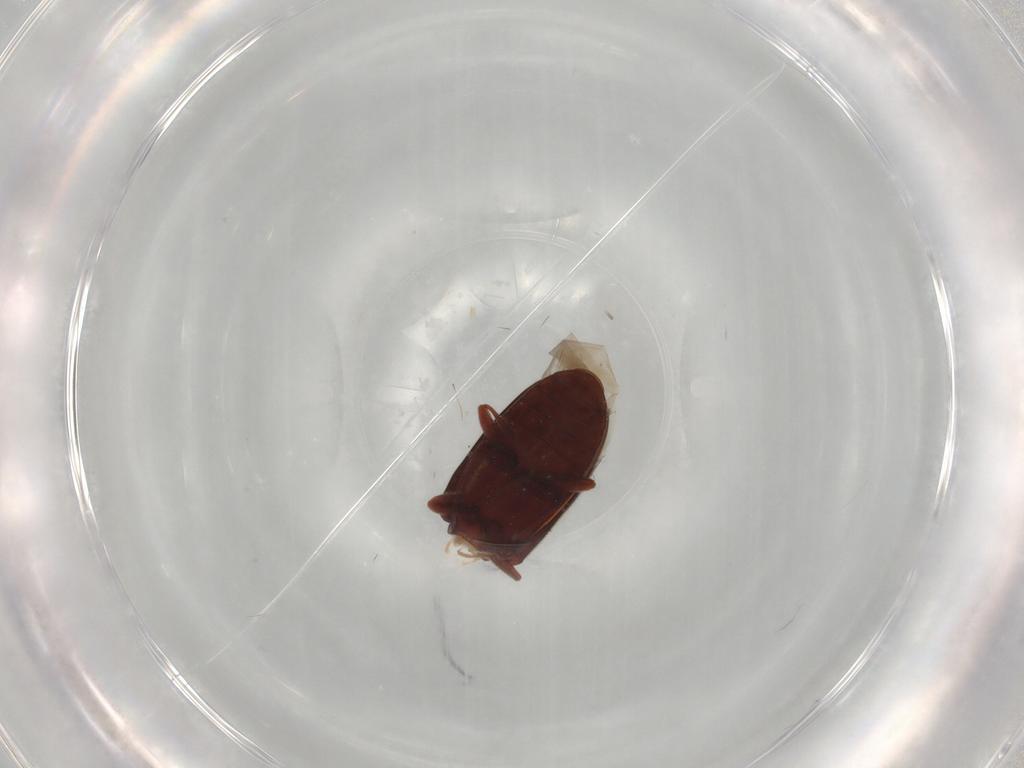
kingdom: Animalia
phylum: Arthropoda
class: Insecta
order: Coleoptera
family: Cryptophagidae
